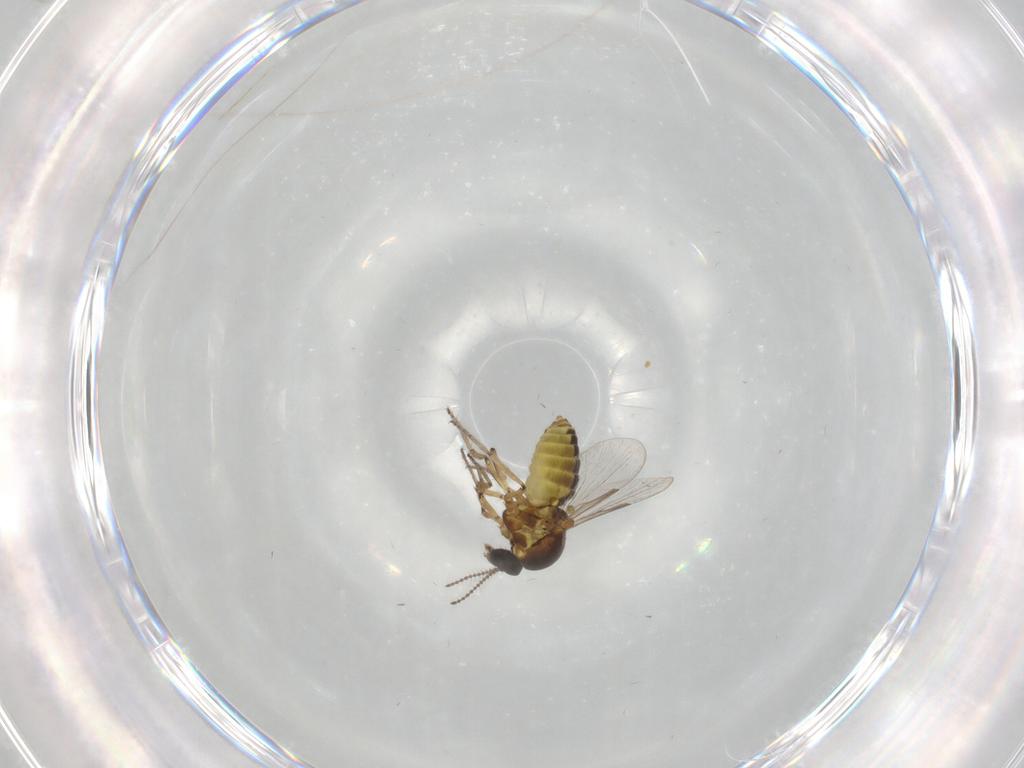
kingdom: Animalia
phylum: Arthropoda
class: Insecta
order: Diptera
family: Ceratopogonidae
